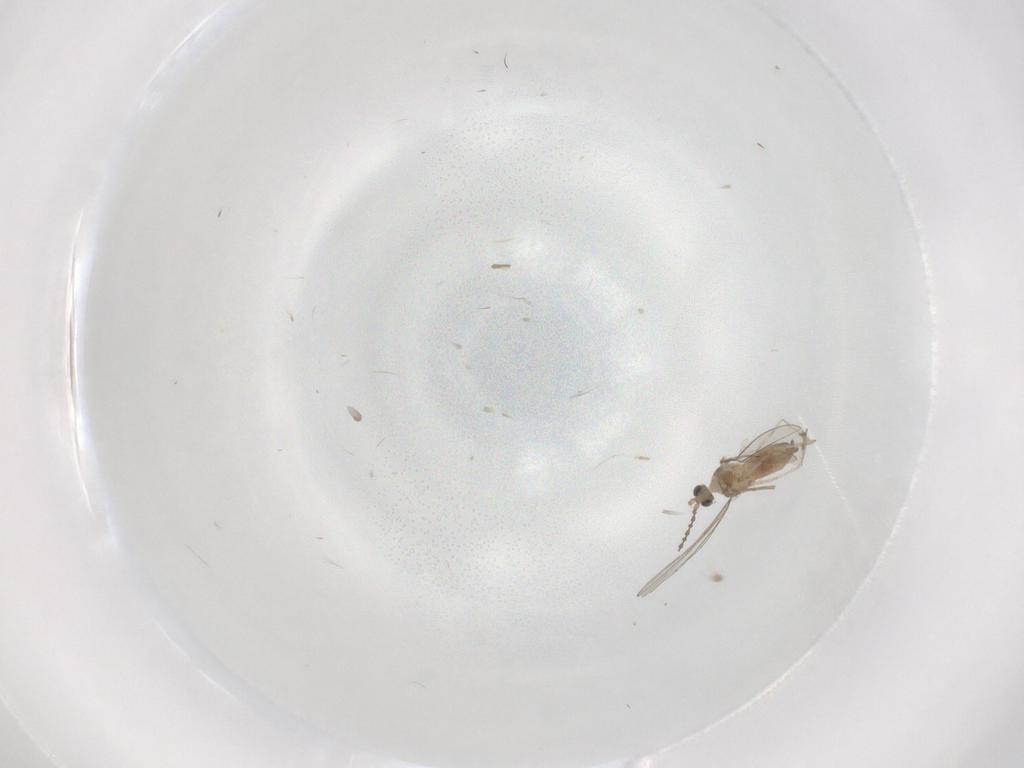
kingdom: Animalia
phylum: Arthropoda
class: Insecta
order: Diptera
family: Cecidomyiidae
